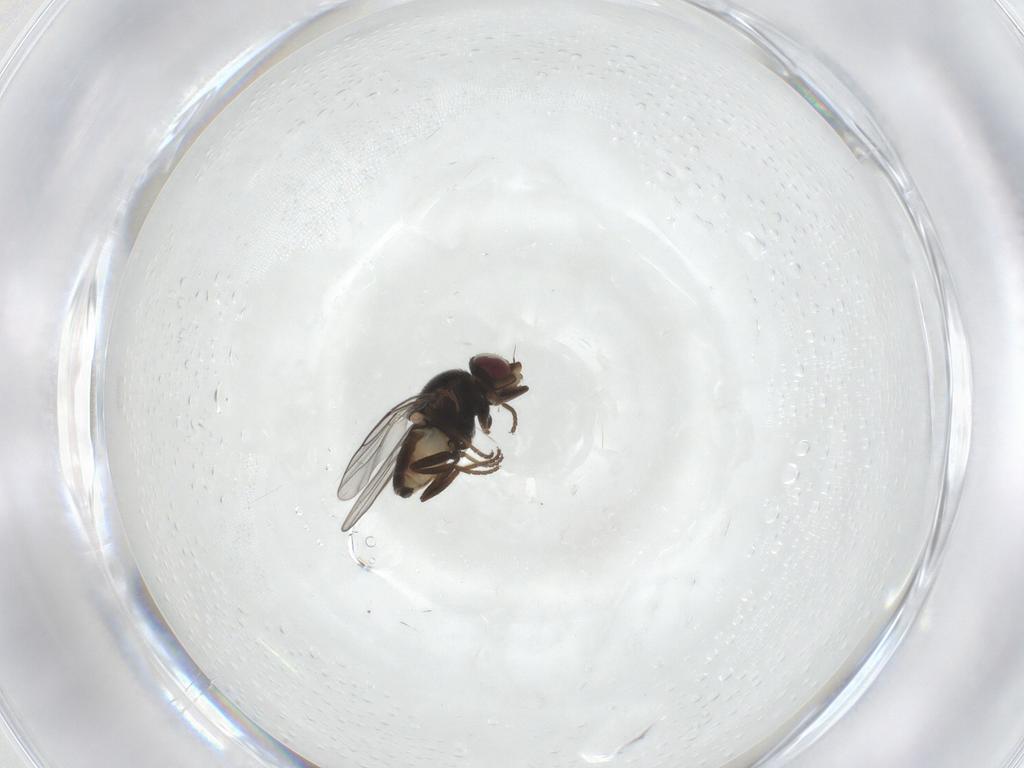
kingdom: Animalia
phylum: Arthropoda
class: Insecta
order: Diptera
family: Chloropidae
